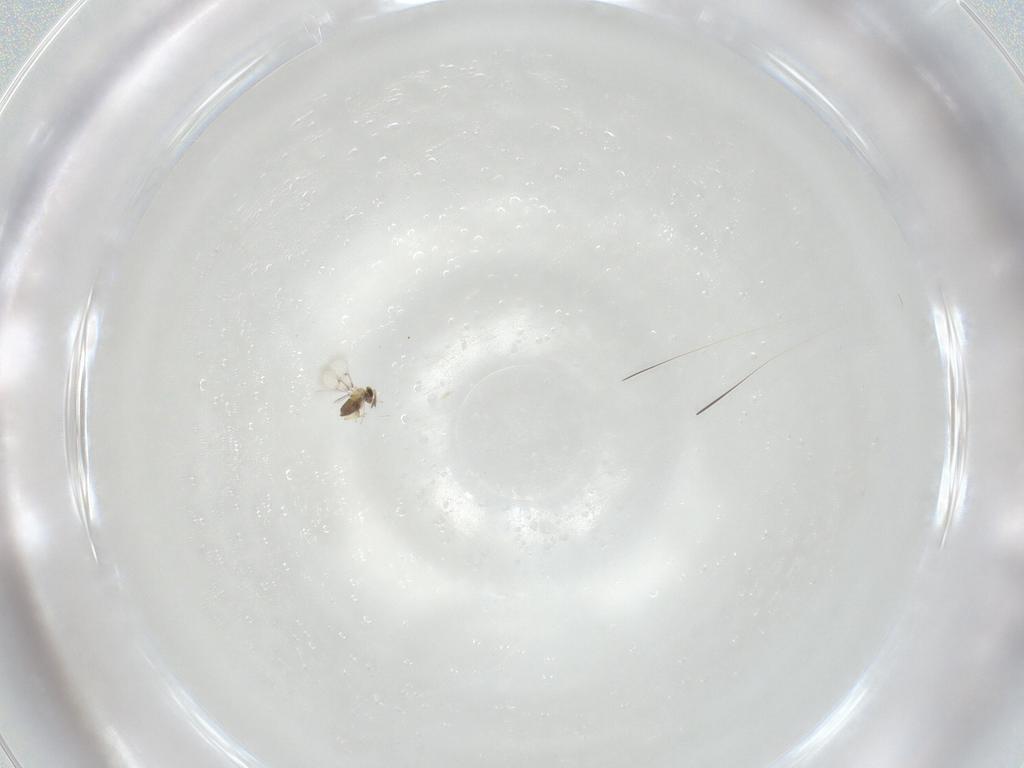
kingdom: Animalia
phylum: Arthropoda
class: Insecta
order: Hymenoptera
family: Trichogrammatidae
